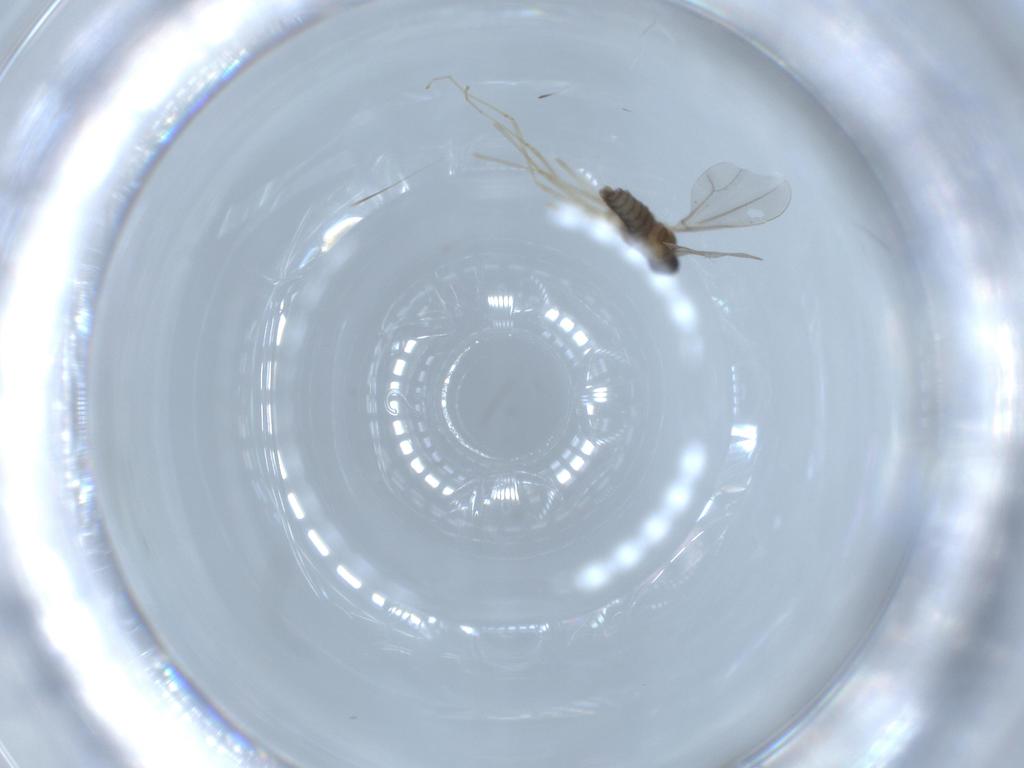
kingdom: Animalia
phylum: Arthropoda
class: Insecta
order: Diptera
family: Cecidomyiidae
